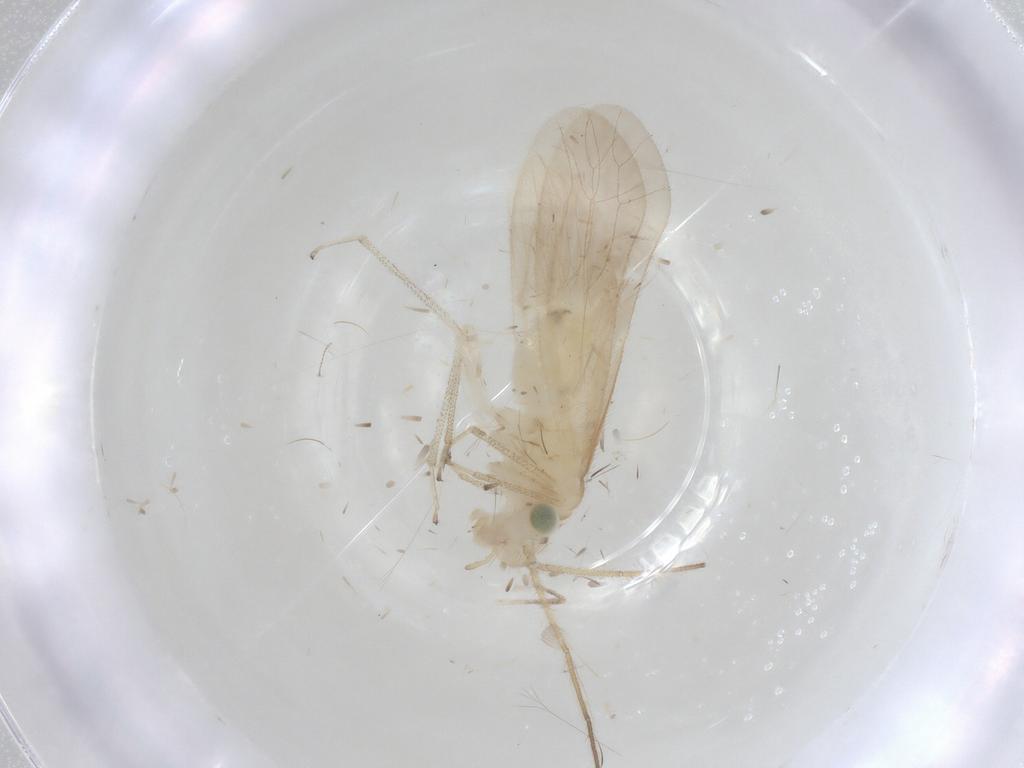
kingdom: Animalia
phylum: Arthropoda
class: Insecta
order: Psocodea
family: Caeciliusidae
